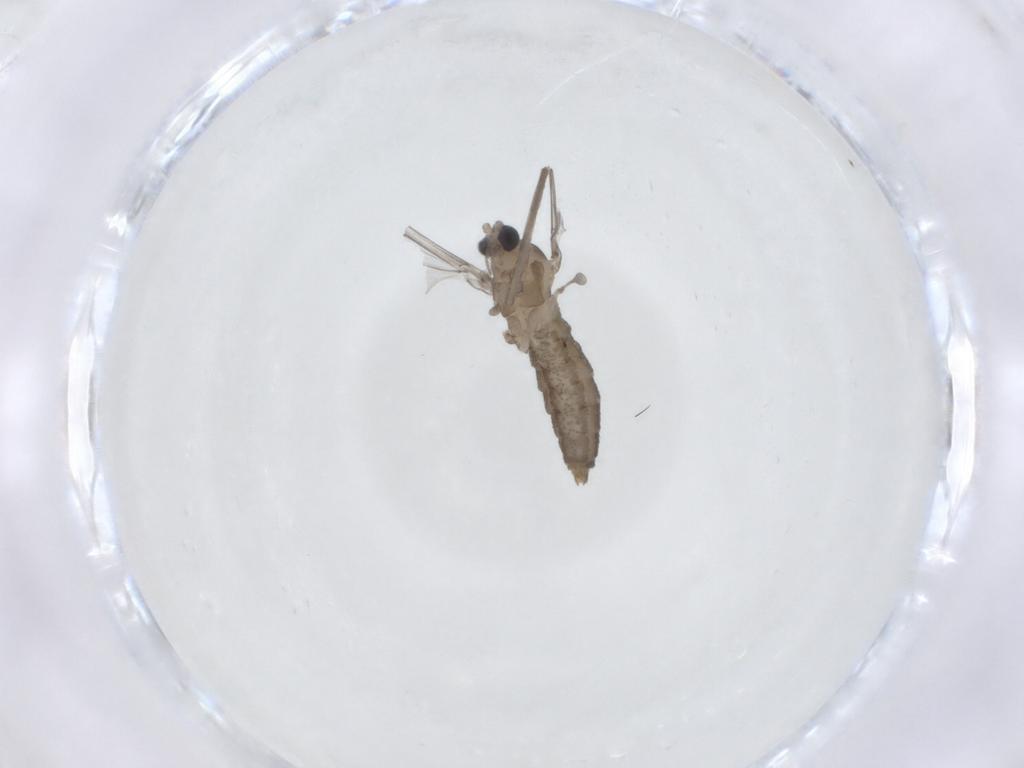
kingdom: Animalia
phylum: Arthropoda
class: Insecta
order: Diptera
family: Cecidomyiidae
